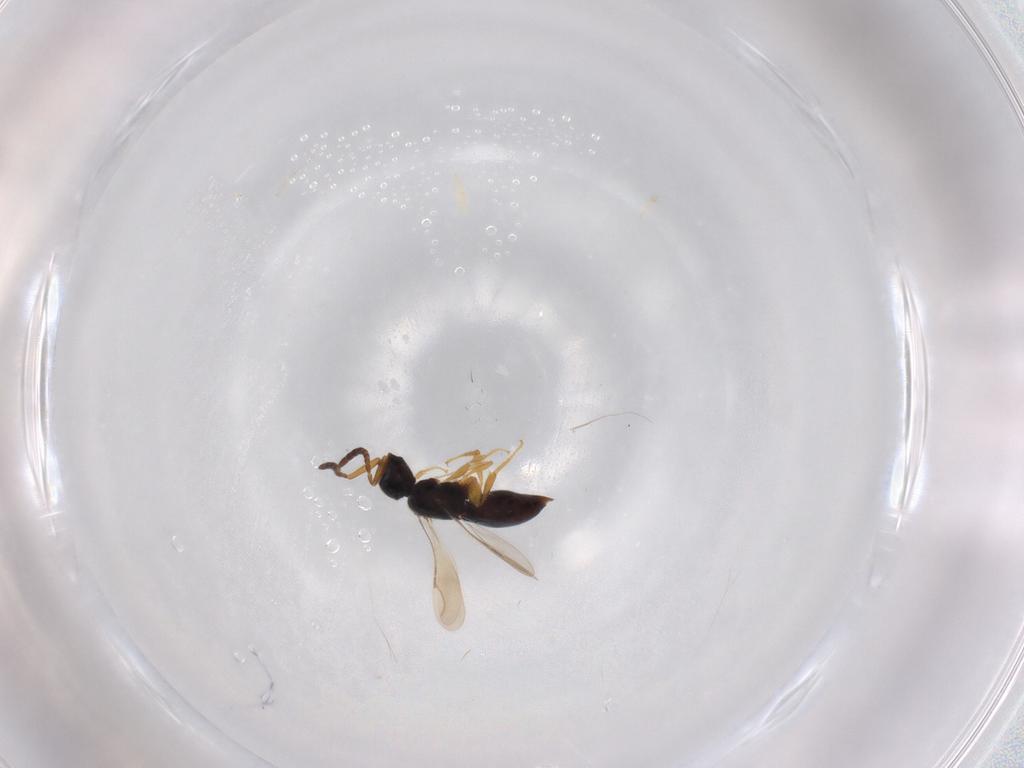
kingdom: Animalia
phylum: Arthropoda
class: Insecta
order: Hymenoptera
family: Ceraphronidae
